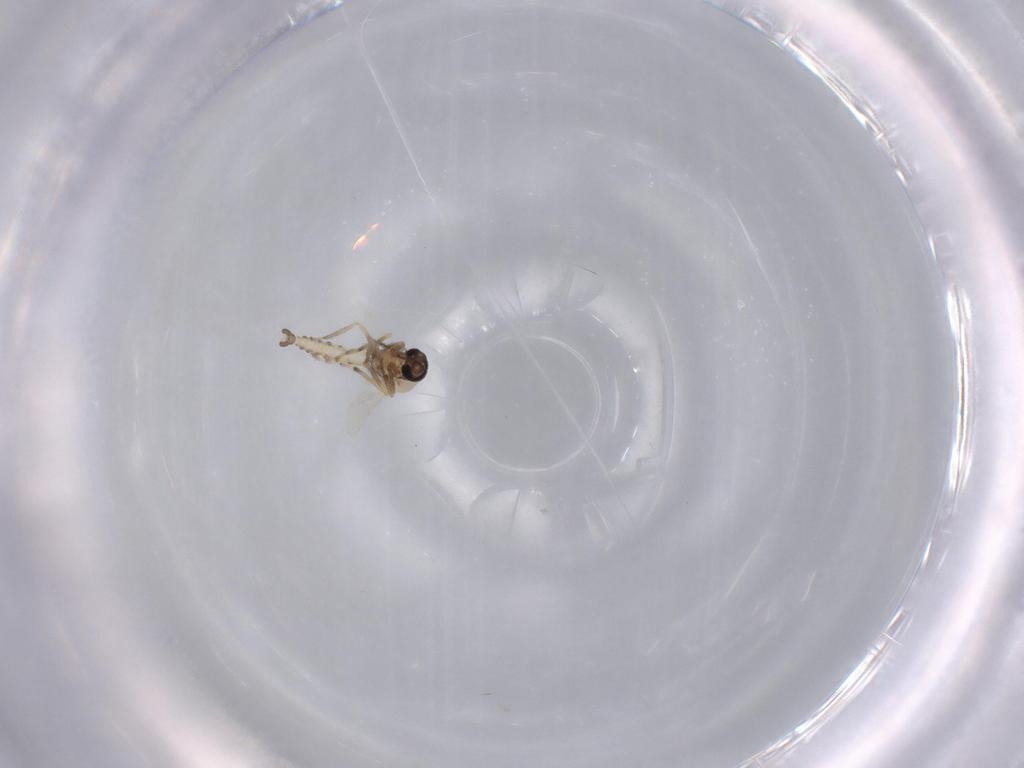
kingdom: Animalia
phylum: Arthropoda
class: Insecta
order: Diptera
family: Ceratopogonidae
